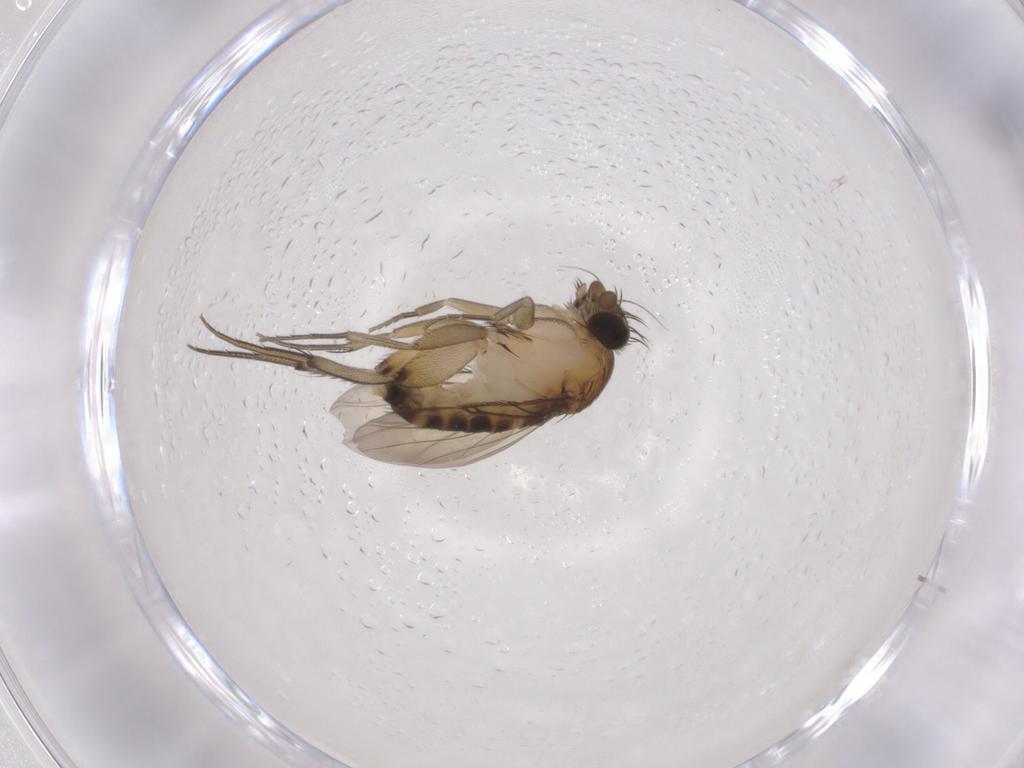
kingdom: Animalia
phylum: Arthropoda
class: Insecta
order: Diptera
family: Phoridae
